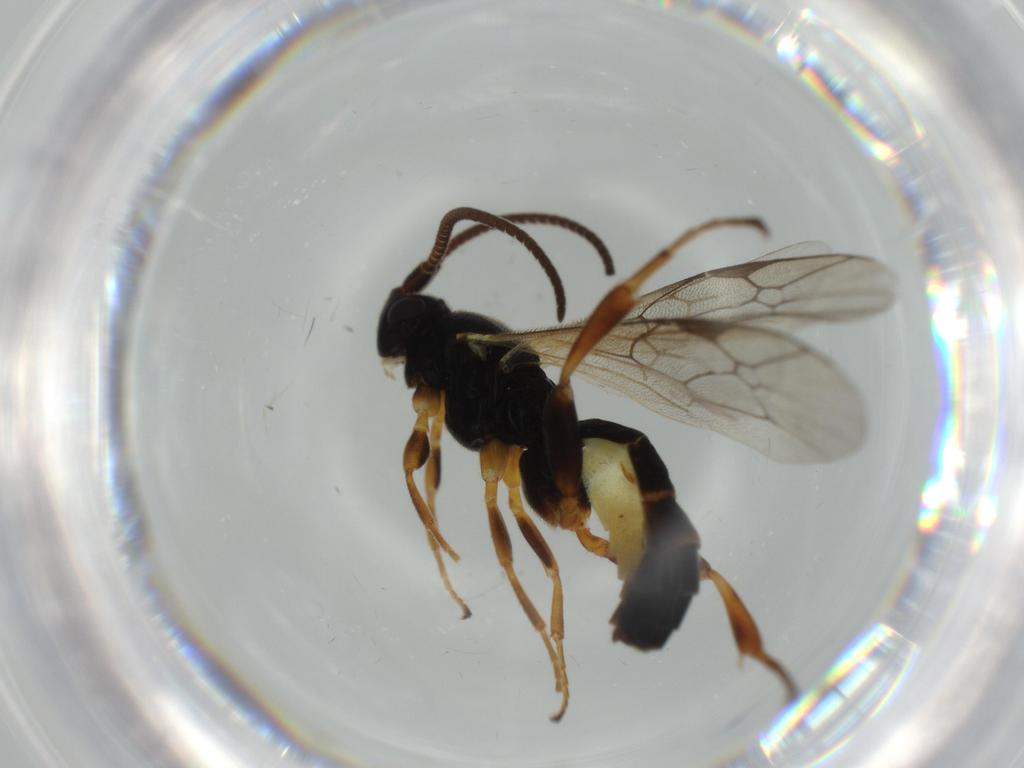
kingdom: Animalia
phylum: Arthropoda
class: Insecta
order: Hymenoptera
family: Ichneumonidae
